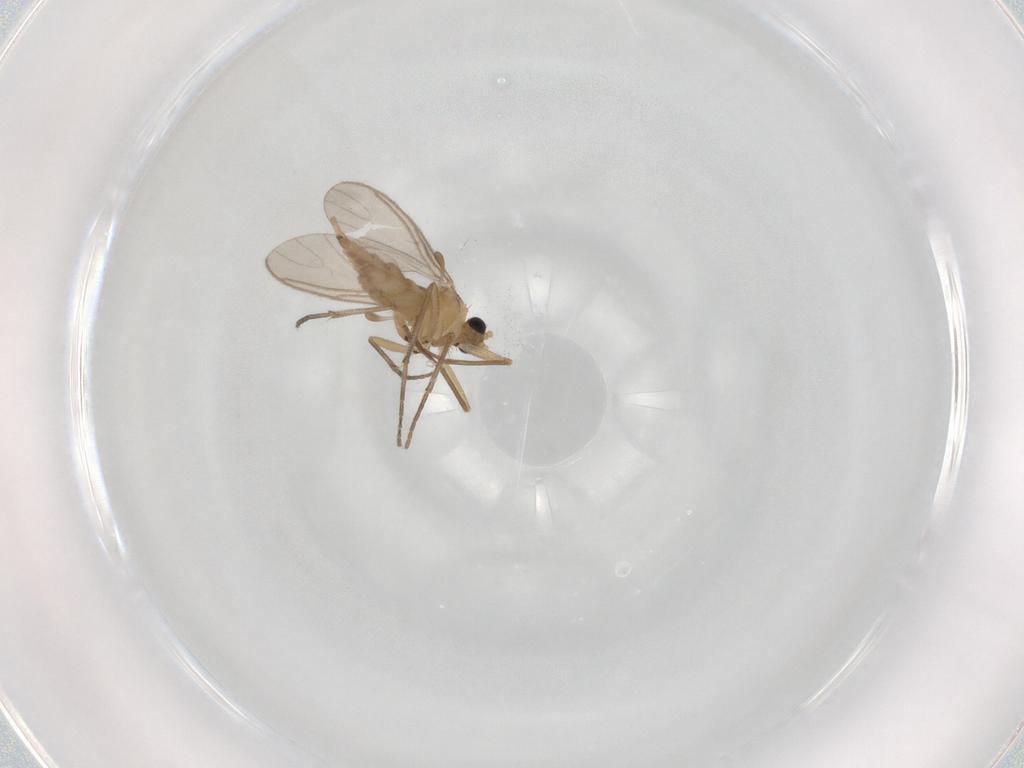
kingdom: Animalia
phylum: Arthropoda
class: Insecta
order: Diptera
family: Sciaridae
